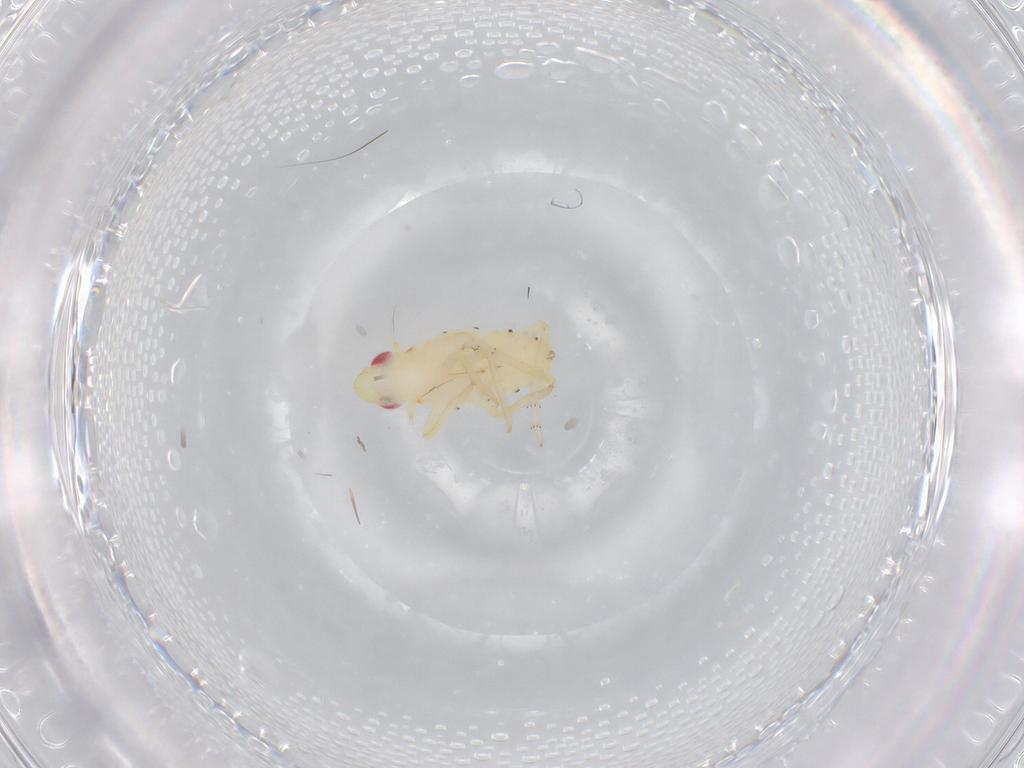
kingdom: Animalia
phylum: Arthropoda
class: Insecta
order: Hemiptera
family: Tropiduchidae
